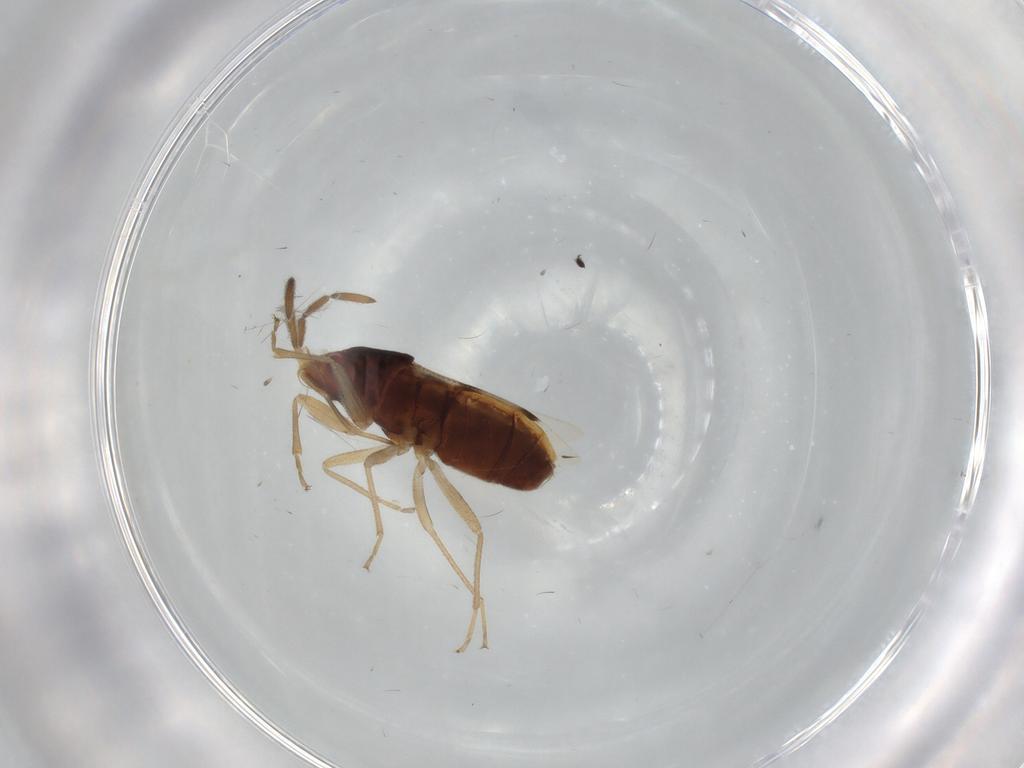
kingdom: Animalia
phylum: Arthropoda
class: Insecta
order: Hemiptera
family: Rhyparochromidae
